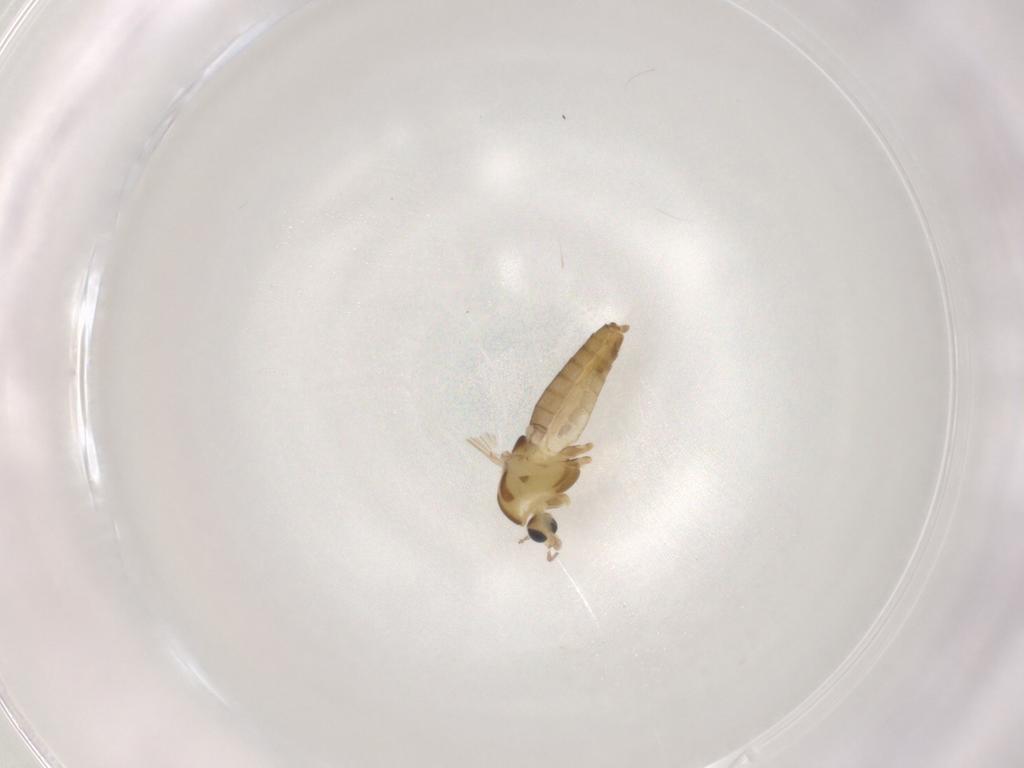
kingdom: Animalia
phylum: Arthropoda
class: Insecta
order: Diptera
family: Chironomidae
